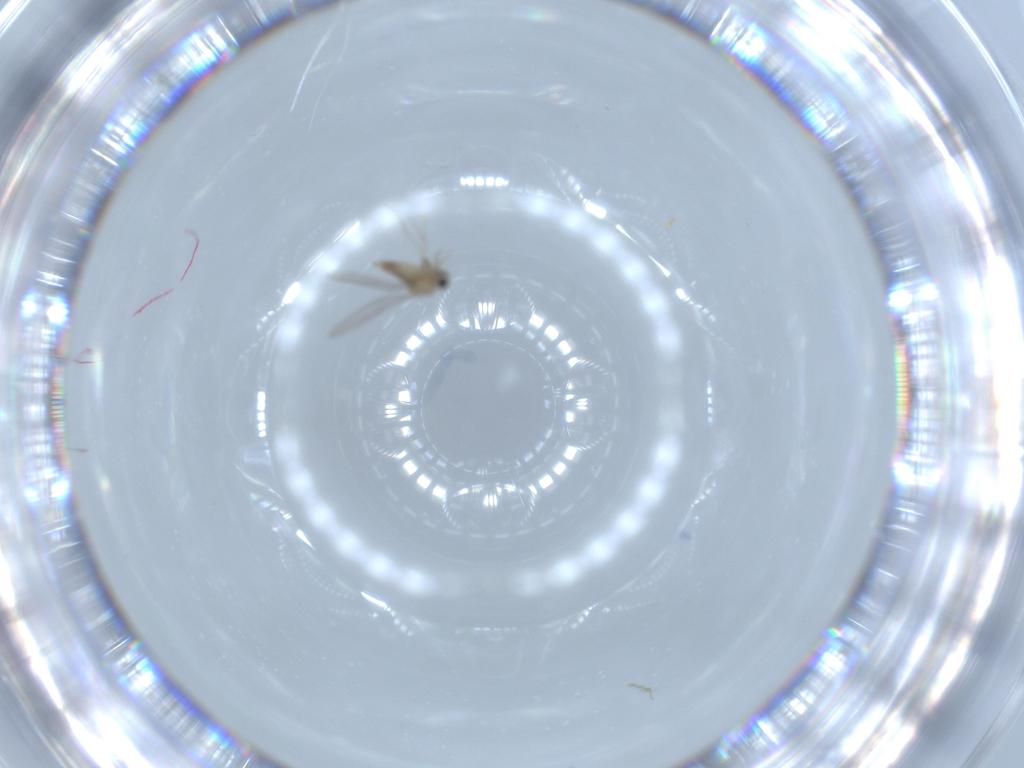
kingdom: Animalia
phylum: Arthropoda
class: Insecta
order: Diptera
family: Cecidomyiidae
